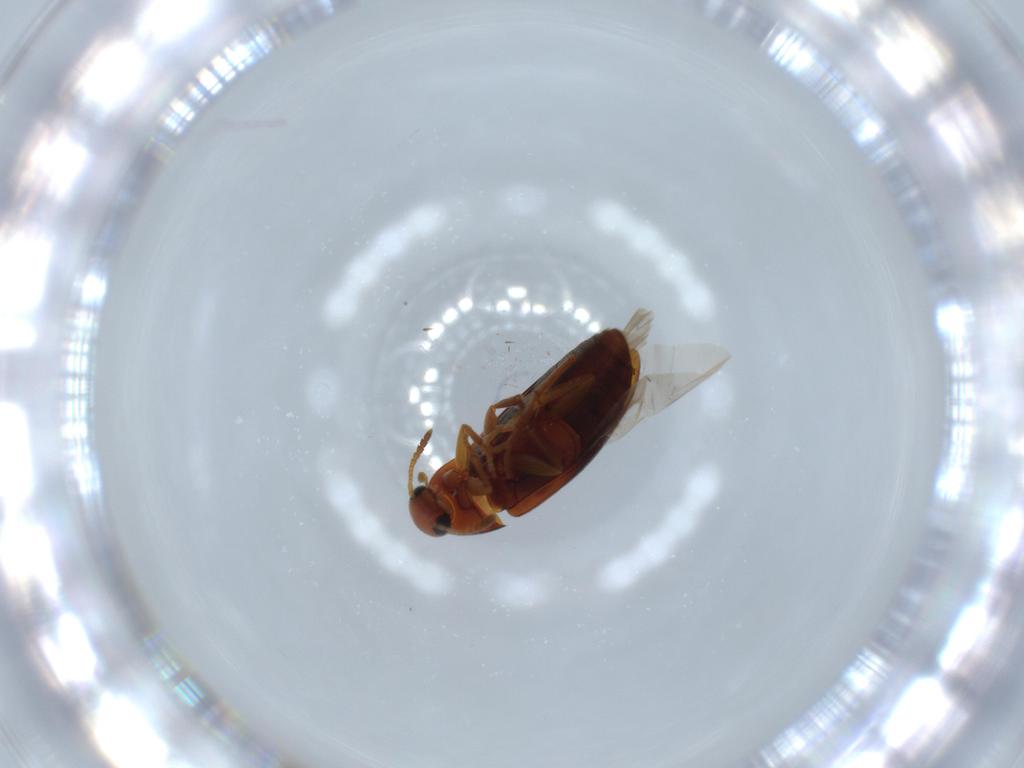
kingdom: Animalia
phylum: Arthropoda
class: Insecta
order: Coleoptera
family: Scraptiidae
